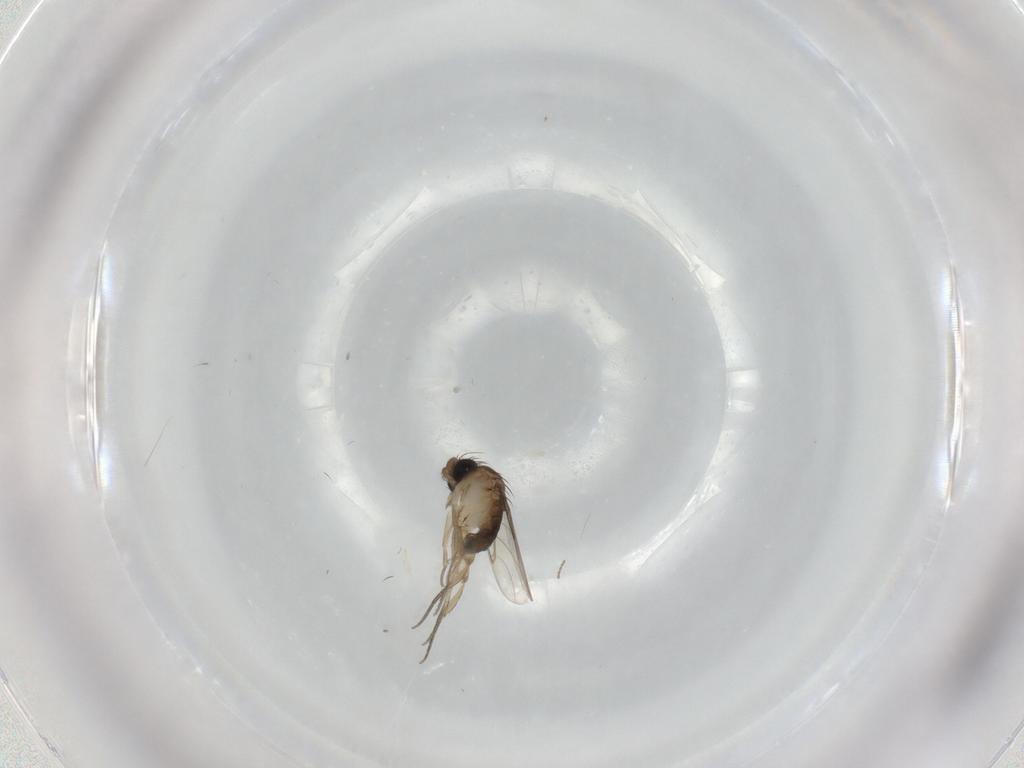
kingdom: Animalia
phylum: Arthropoda
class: Insecta
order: Diptera
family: Phoridae
